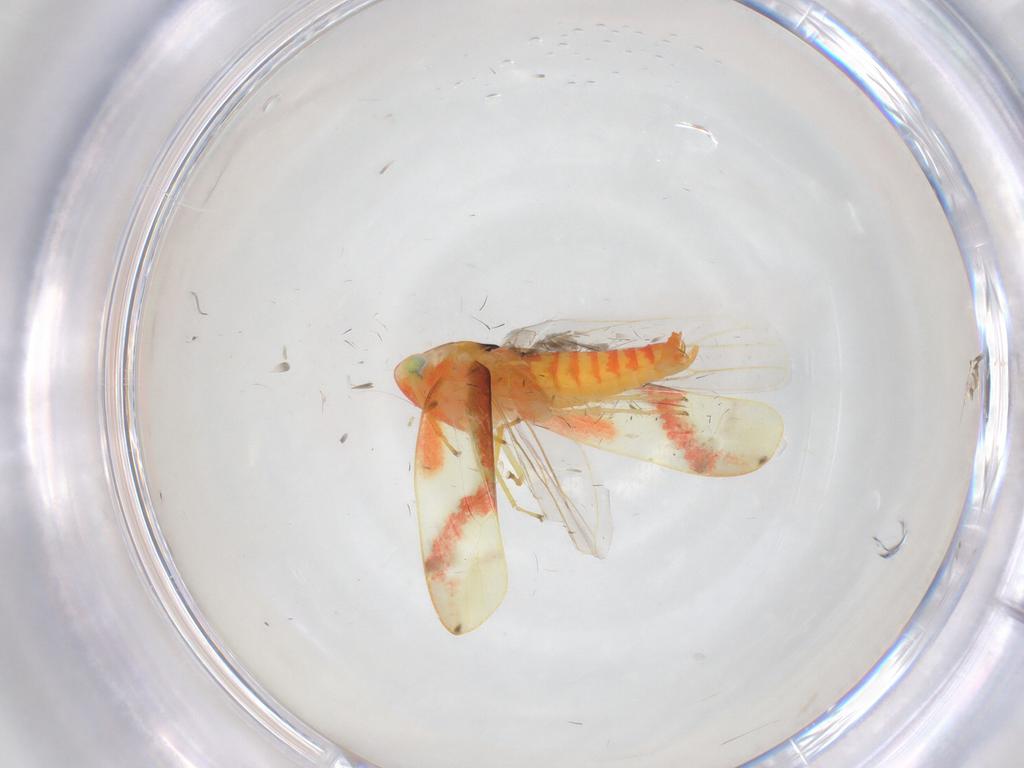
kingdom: Animalia
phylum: Arthropoda
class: Insecta
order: Hemiptera
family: Cicadellidae
